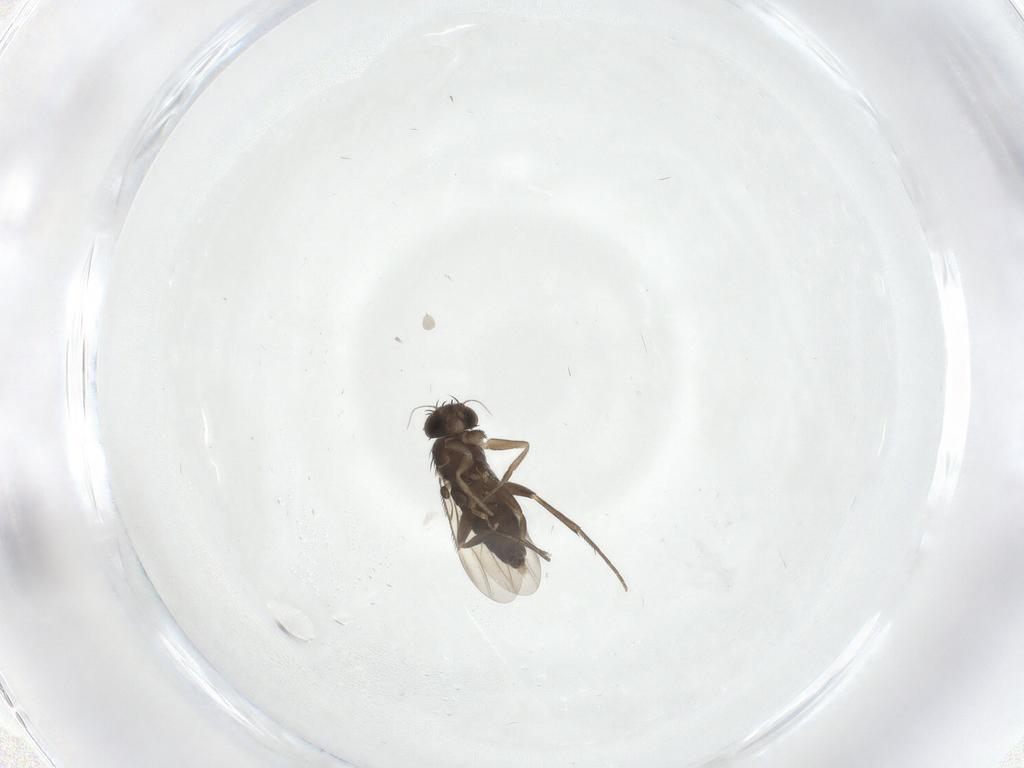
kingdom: Animalia
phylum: Arthropoda
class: Insecta
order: Diptera
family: Phoridae
